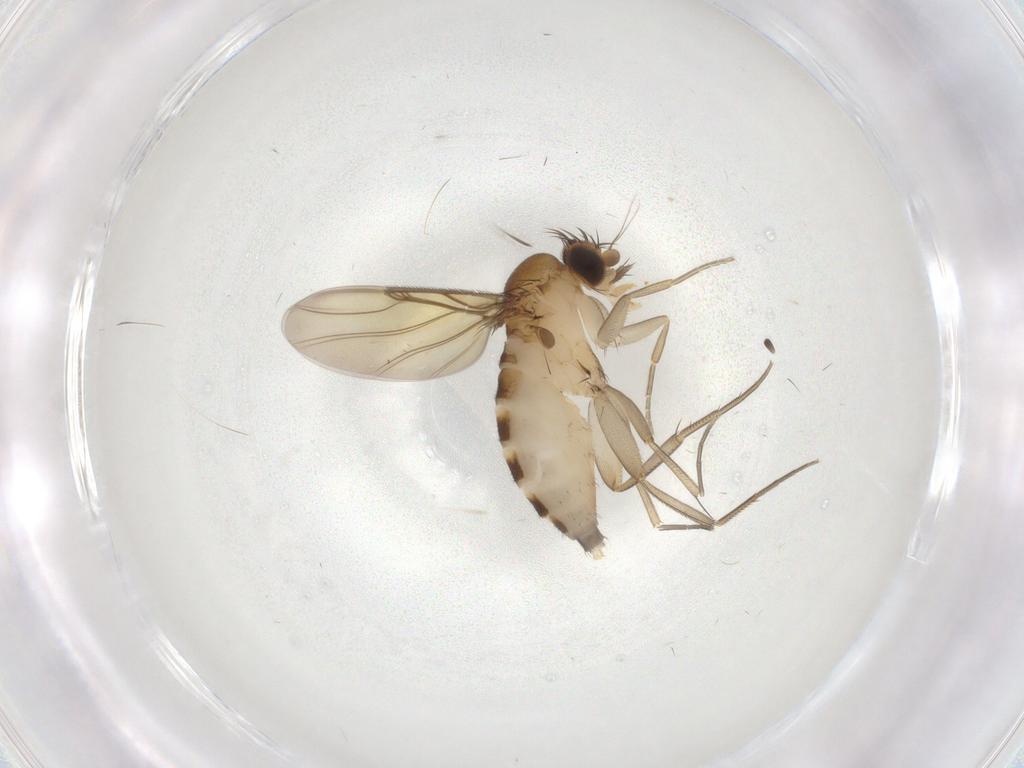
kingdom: Animalia
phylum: Arthropoda
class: Insecta
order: Diptera
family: Phoridae
